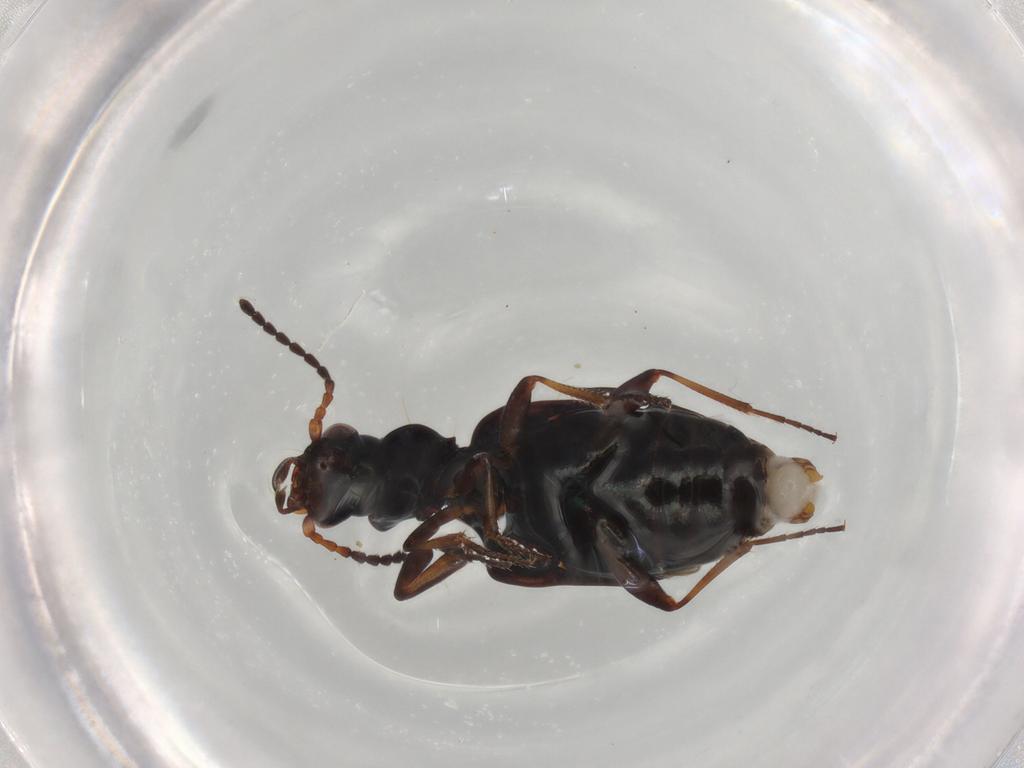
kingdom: Animalia
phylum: Arthropoda
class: Insecta
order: Coleoptera
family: Carabidae
